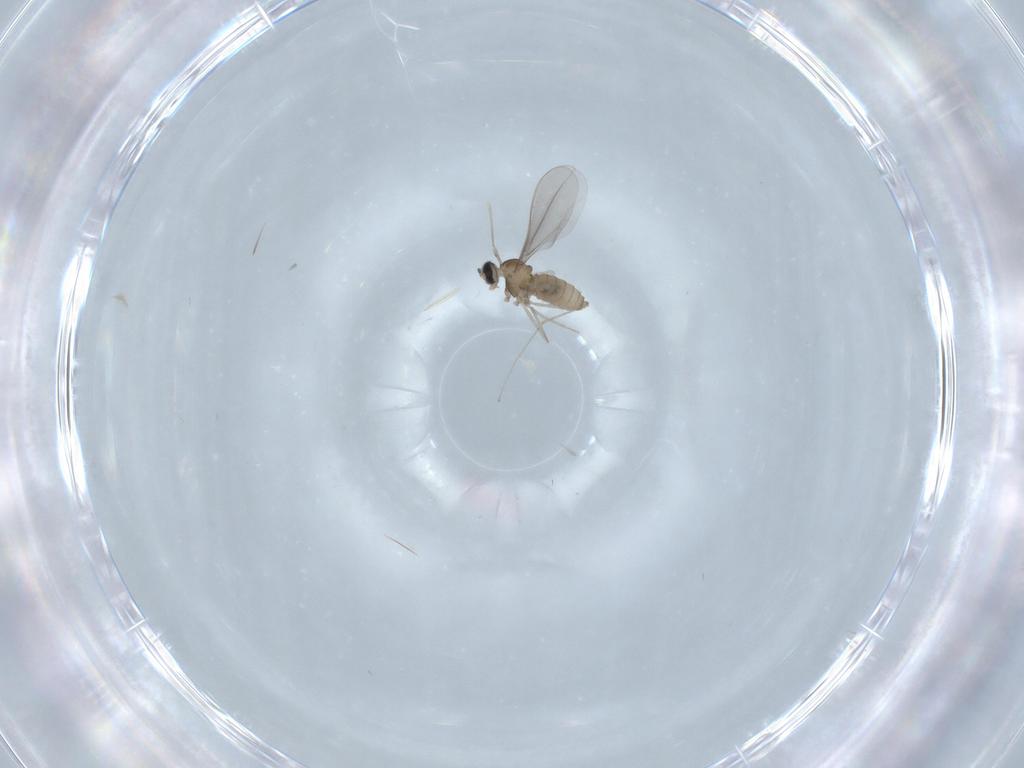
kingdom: Animalia
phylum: Arthropoda
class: Insecta
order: Diptera
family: Cecidomyiidae
